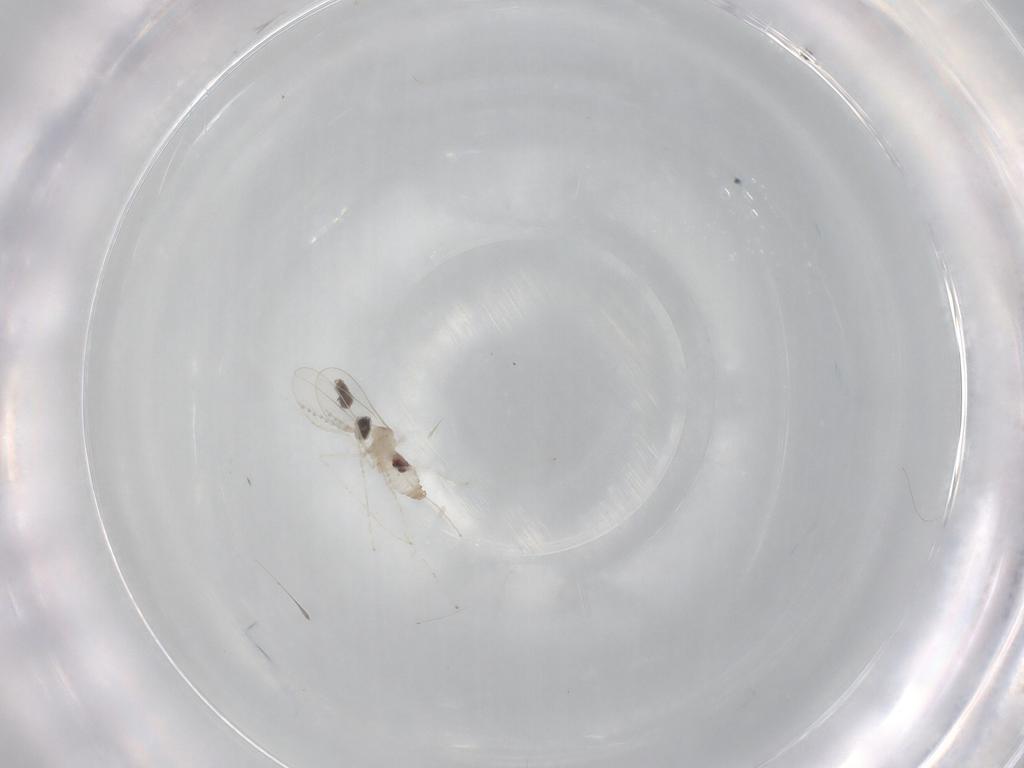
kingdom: Animalia
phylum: Arthropoda
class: Insecta
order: Diptera
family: Cecidomyiidae
